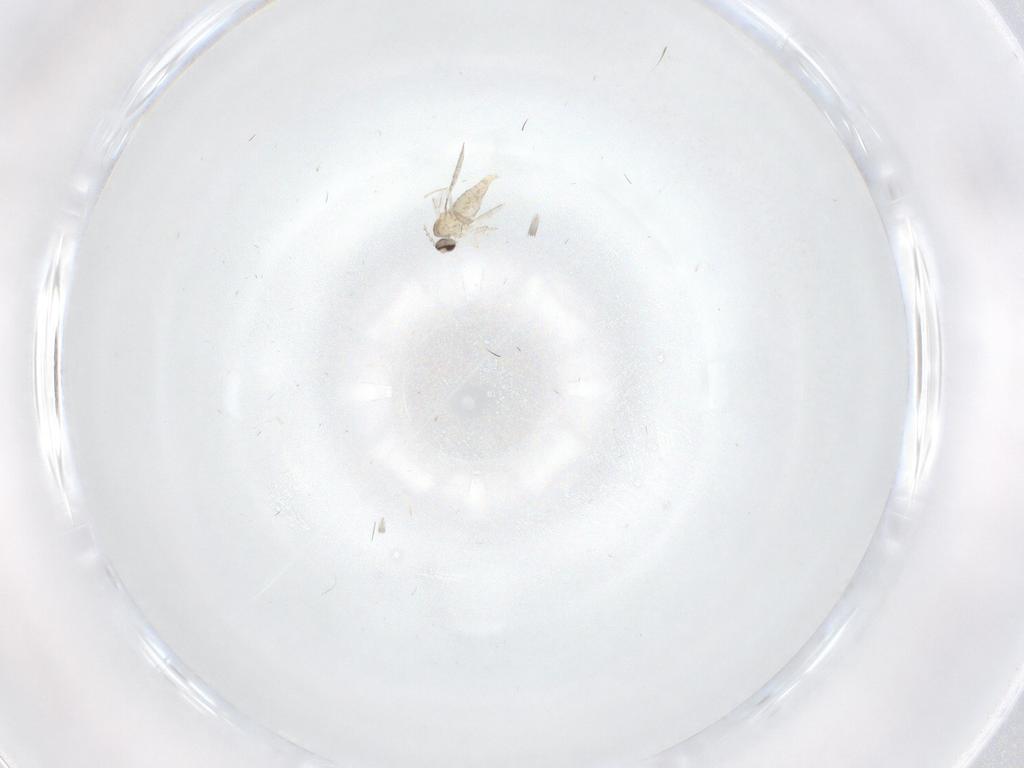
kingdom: Animalia
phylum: Arthropoda
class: Insecta
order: Diptera
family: Cecidomyiidae
